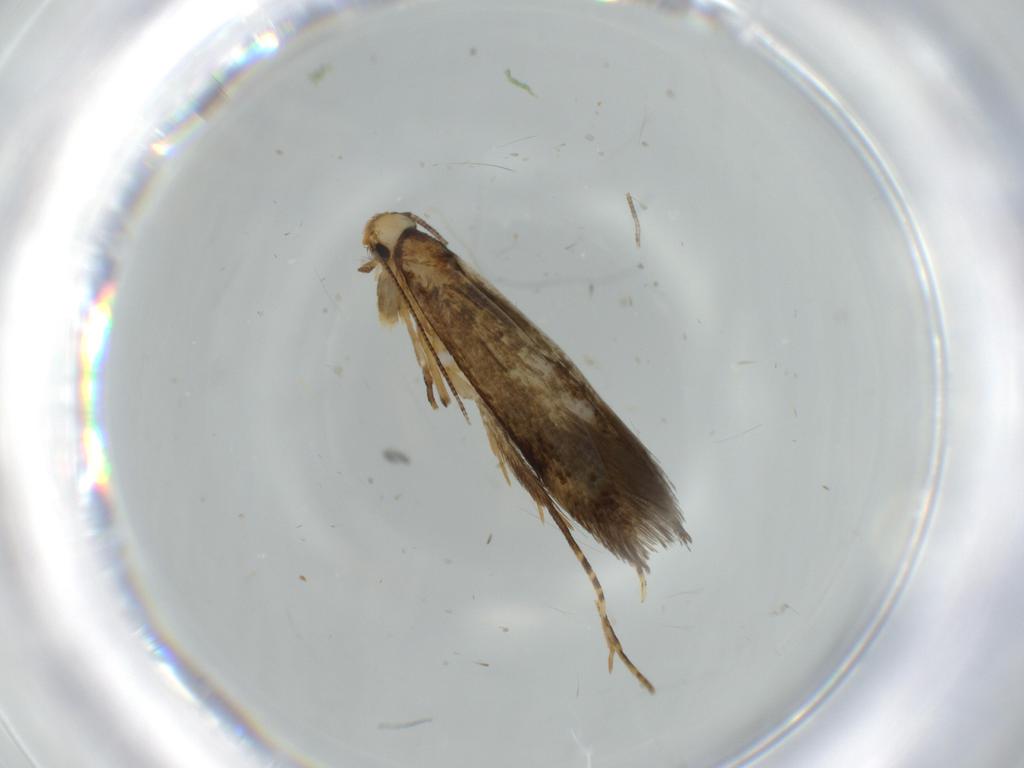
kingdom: Animalia
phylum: Arthropoda
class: Insecta
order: Lepidoptera
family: Tineidae
